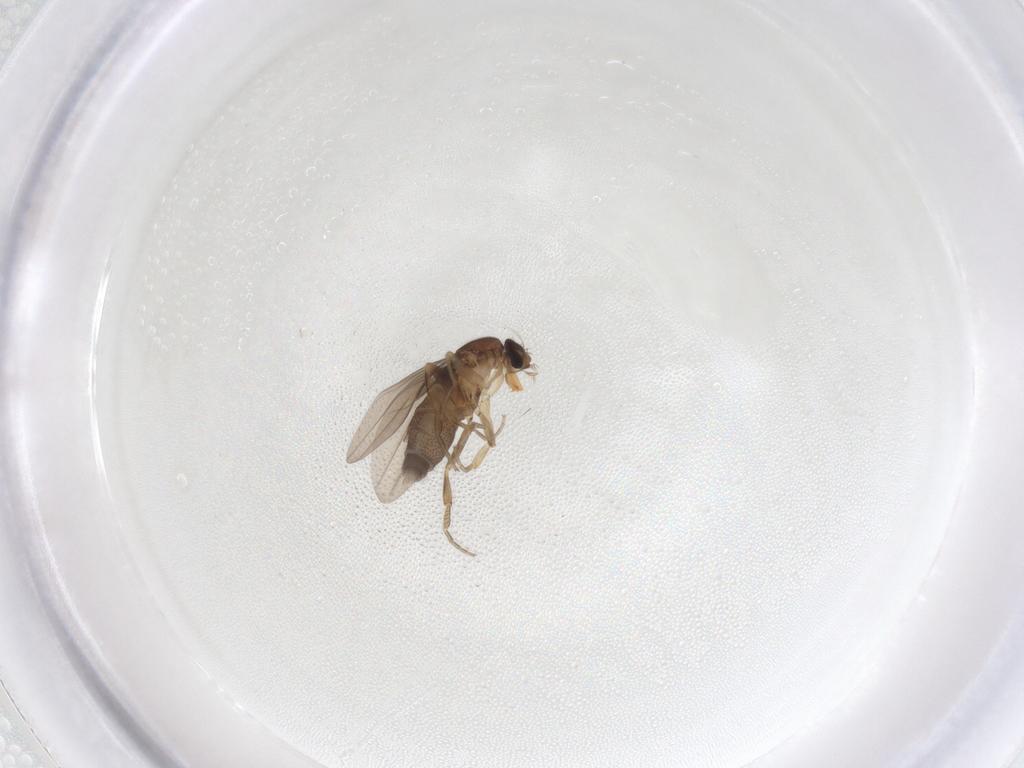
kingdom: Animalia
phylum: Arthropoda
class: Insecta
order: Diptera
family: Phoridae
